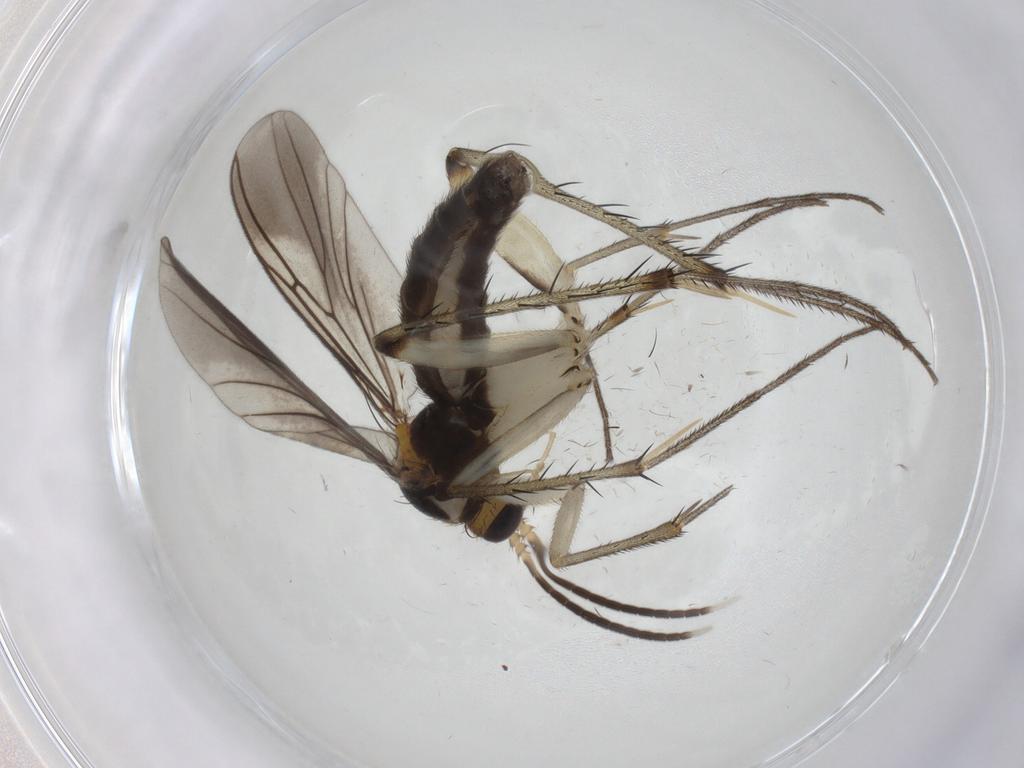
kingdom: Animalia
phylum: Arthropoda
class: Insecta
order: Diptera
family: Mycetophilidae
